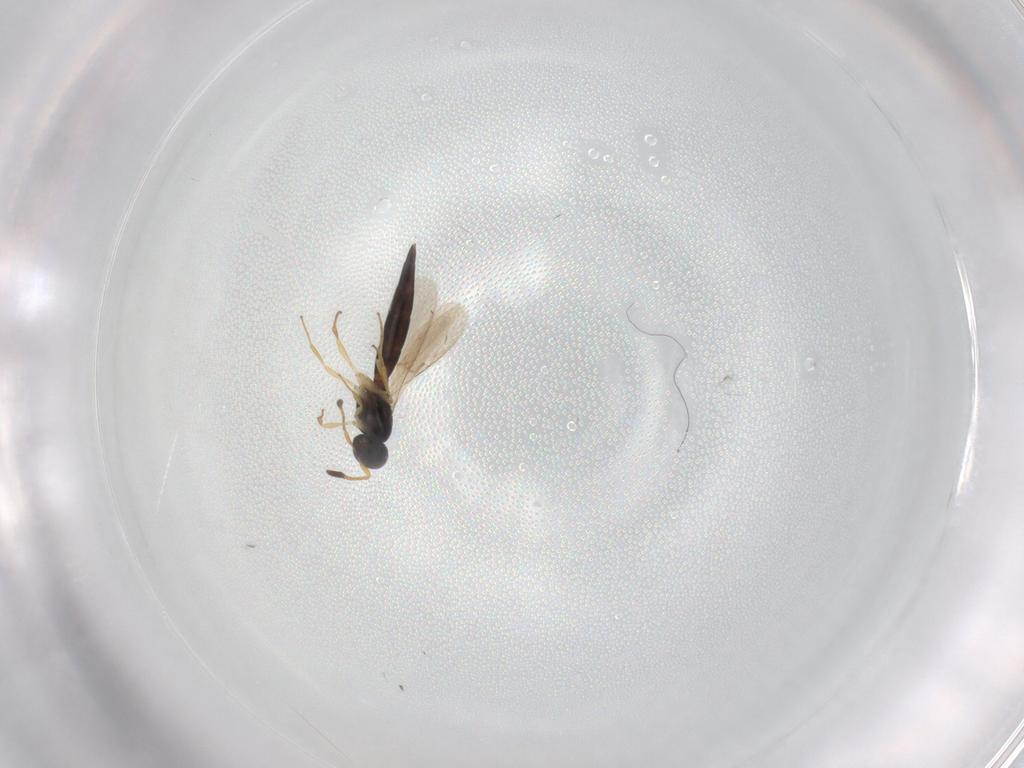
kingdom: Animalia
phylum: Arthropoda
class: Insecta
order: Hymenoptera
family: Scelionidae
